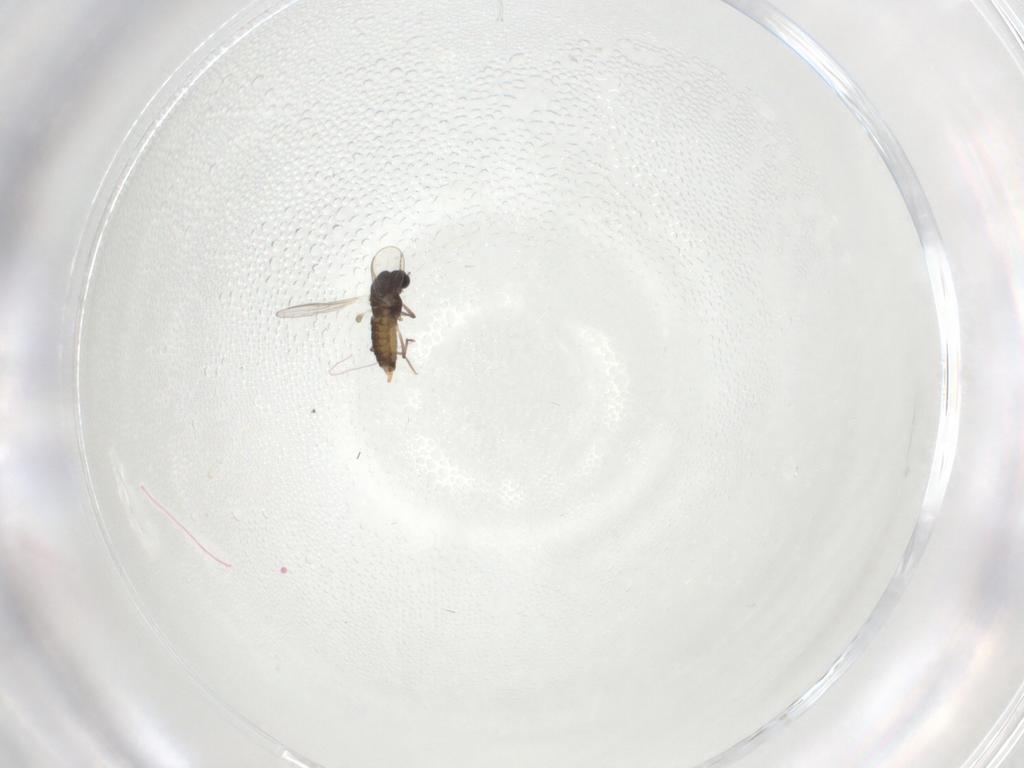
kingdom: Animalia
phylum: Arthropoda
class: Insecta
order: Diptera
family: Chironomidae
